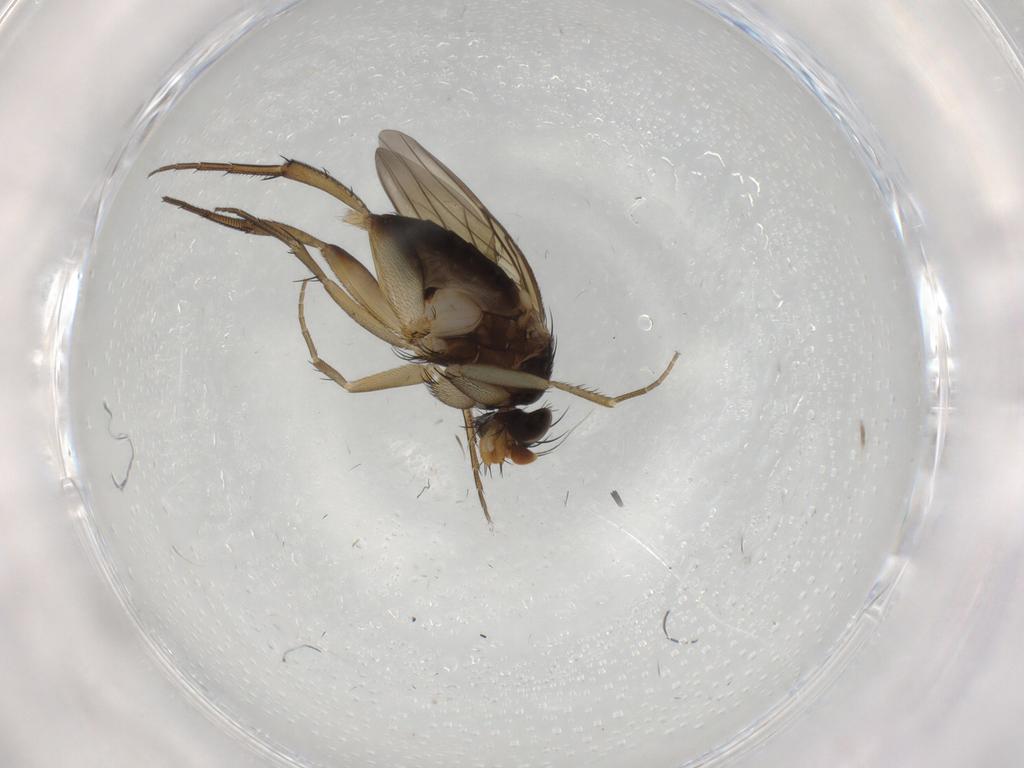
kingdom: Animalia
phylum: Arthropoda
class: Insecta
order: Diptera
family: Phoridae
